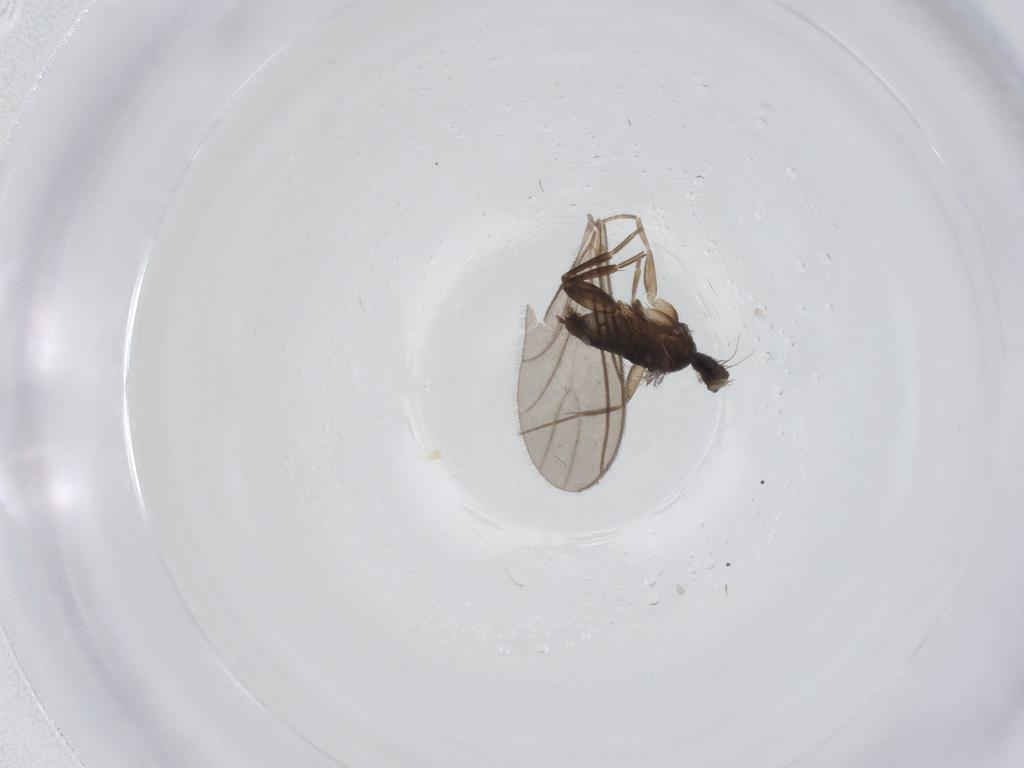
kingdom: Animalia
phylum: Arthropoda
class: Insecta
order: Diptera
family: Phoridae
